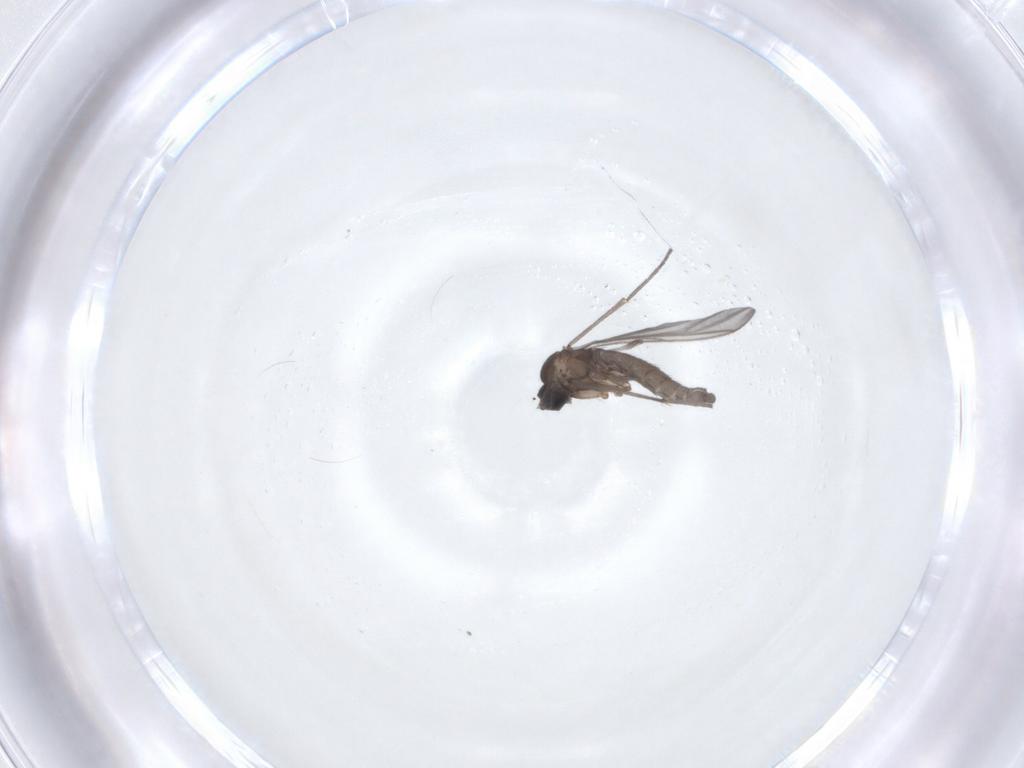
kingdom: Animalia
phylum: Arthropoda
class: Insecta
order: Diptera
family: Sciaridae
